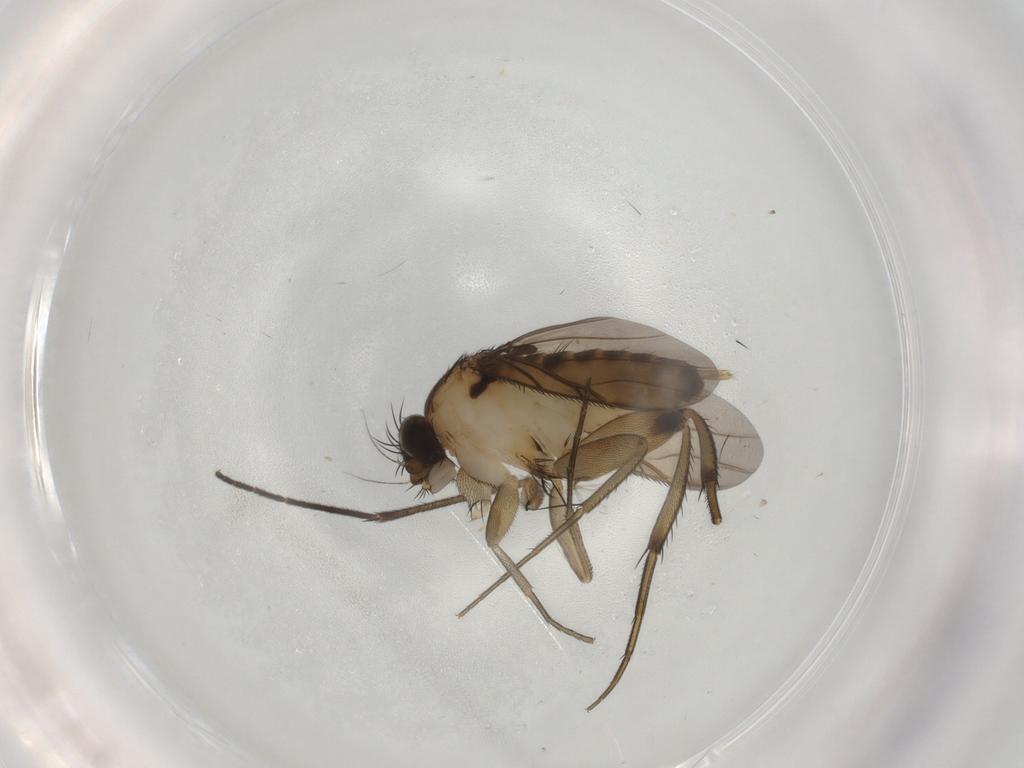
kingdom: Animalia
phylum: Arthropoda
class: Insecta
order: Diptera
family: Sciaridae
